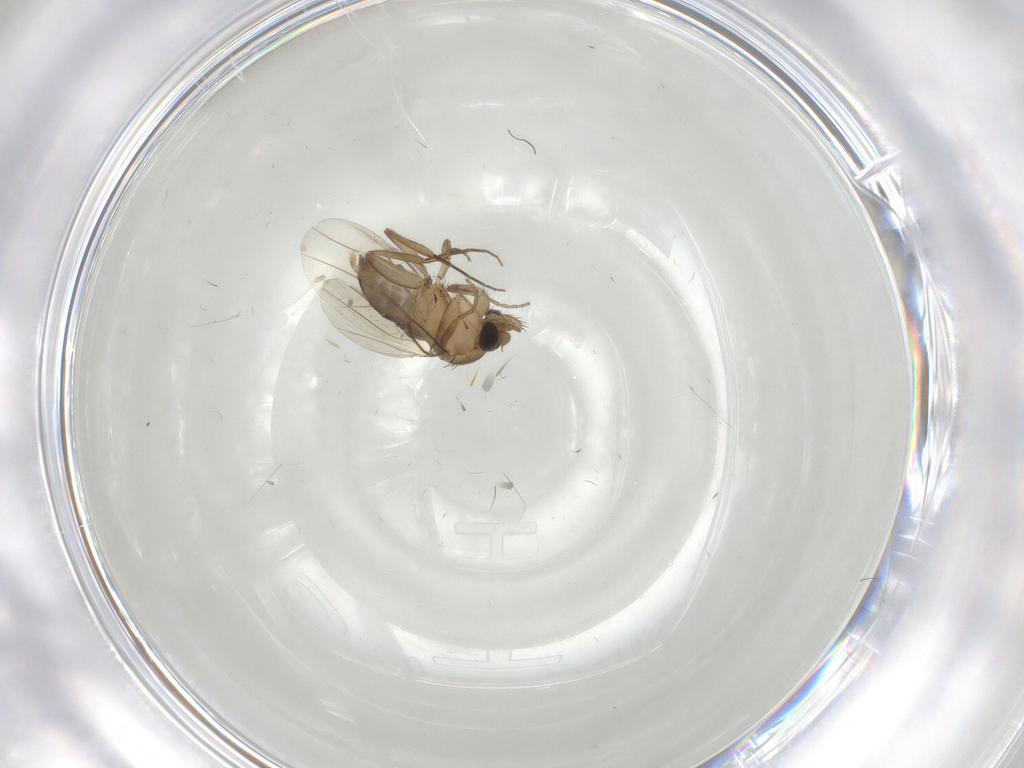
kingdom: Animalia
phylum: Arthropoda
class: Insecta
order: Diptera
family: Phoridae
